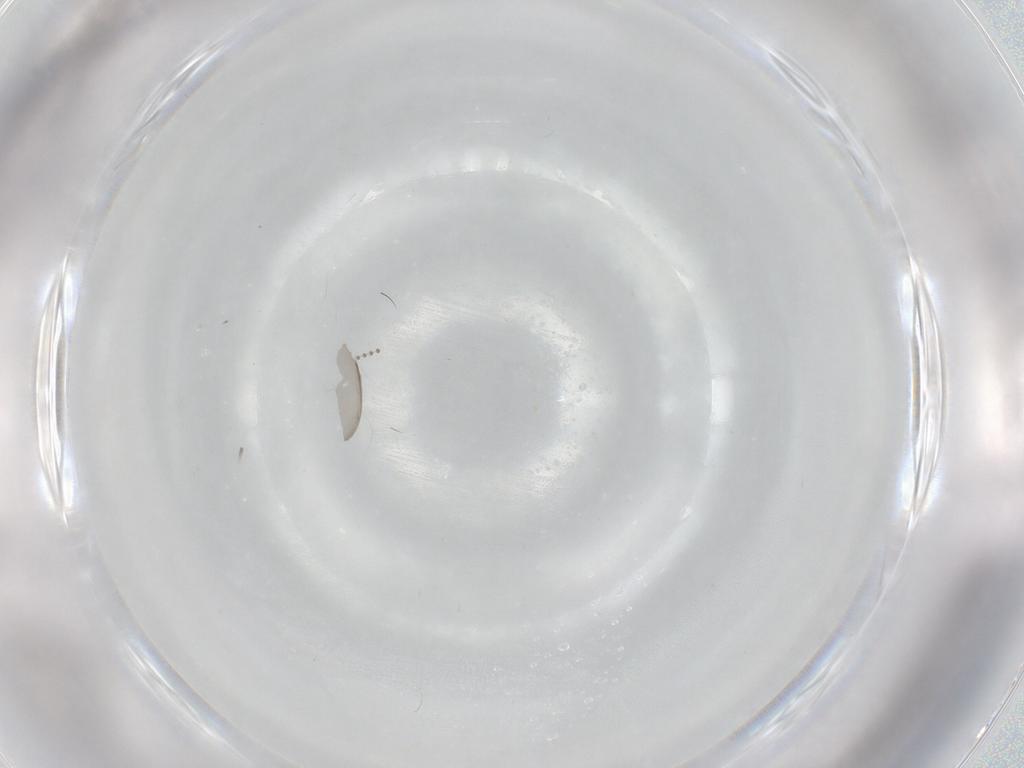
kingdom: Animalia
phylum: Arthropoda
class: Insecta
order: Diptera
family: Cecidomyiidae
